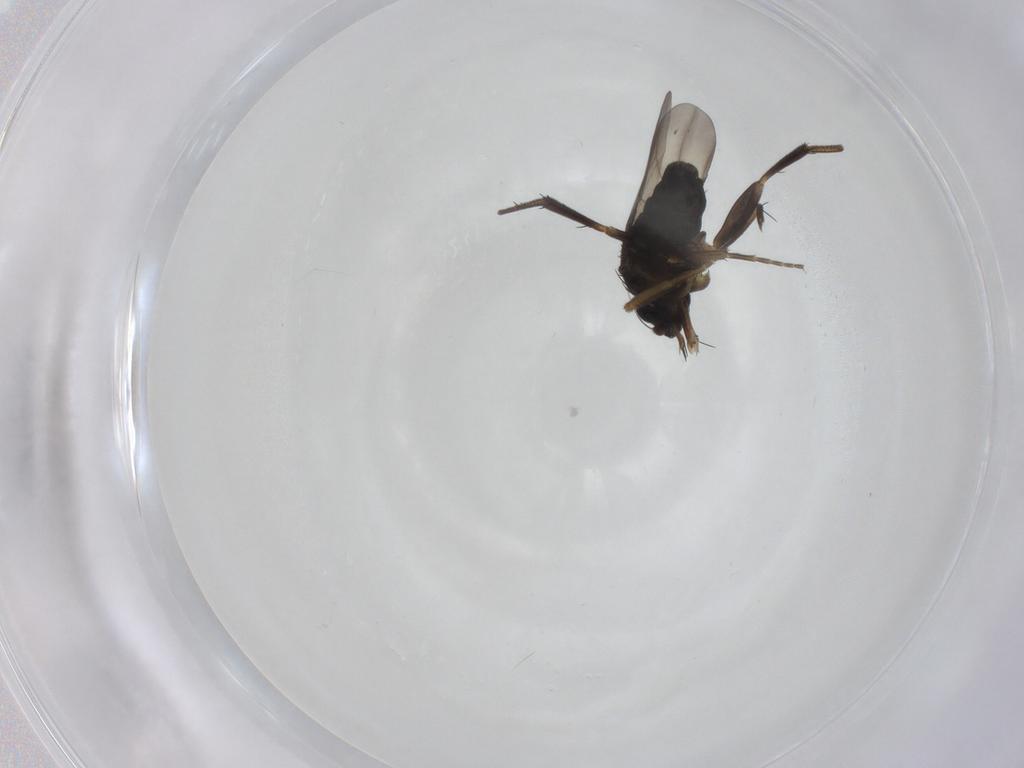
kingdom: Animalia
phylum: Arthropoda
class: Insecta
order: Diptera
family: Phoridae
